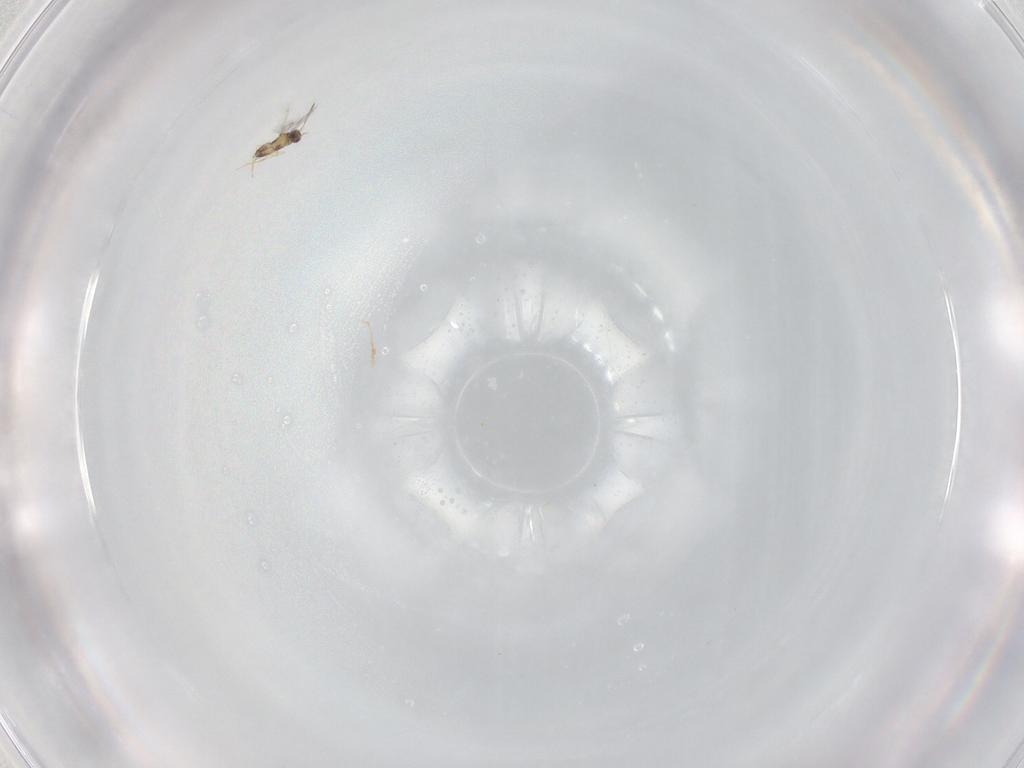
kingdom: Animalia
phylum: Arthropoda
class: Insecta
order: Hymenoptera
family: Mymaridae
